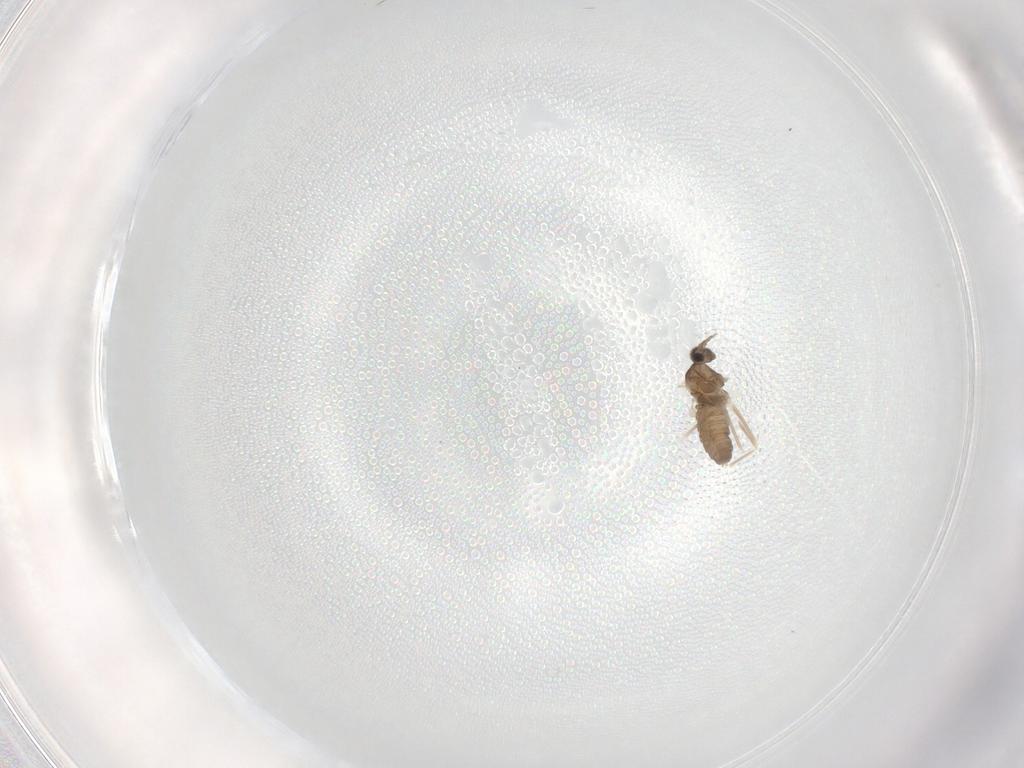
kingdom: Animalia
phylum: Arthropoda
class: Insecta
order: Diptera
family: Cecidomyiidae
